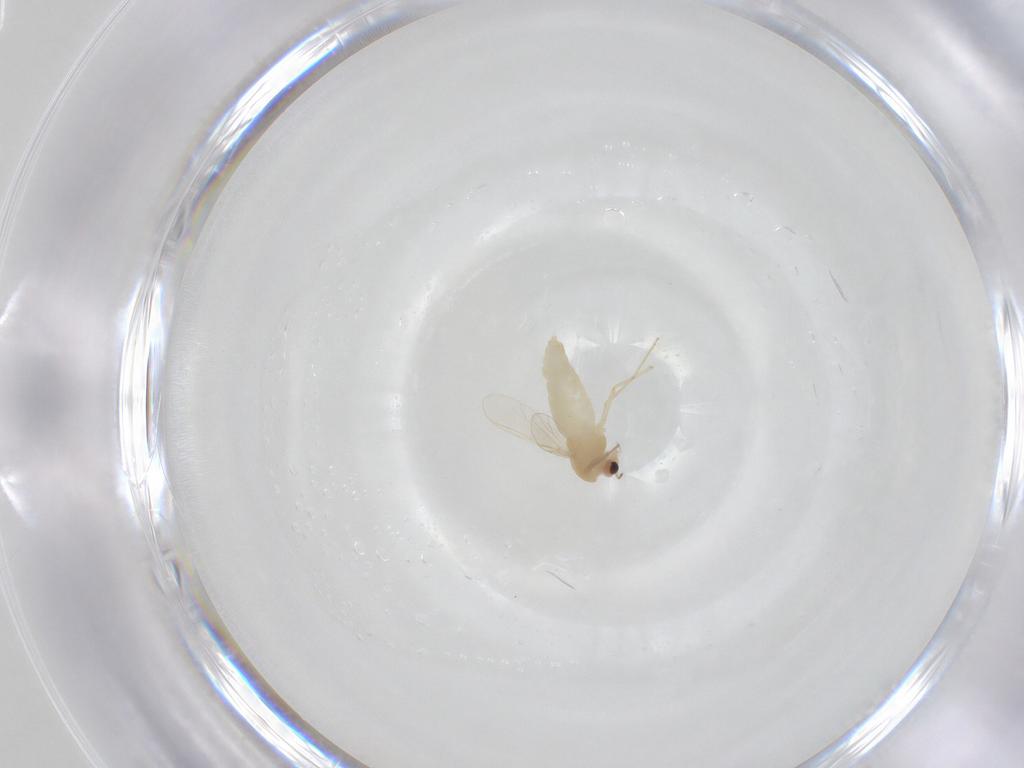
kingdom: Animalia
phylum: Arthropoda
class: Insecta
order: Diptera
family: Chironomidae
